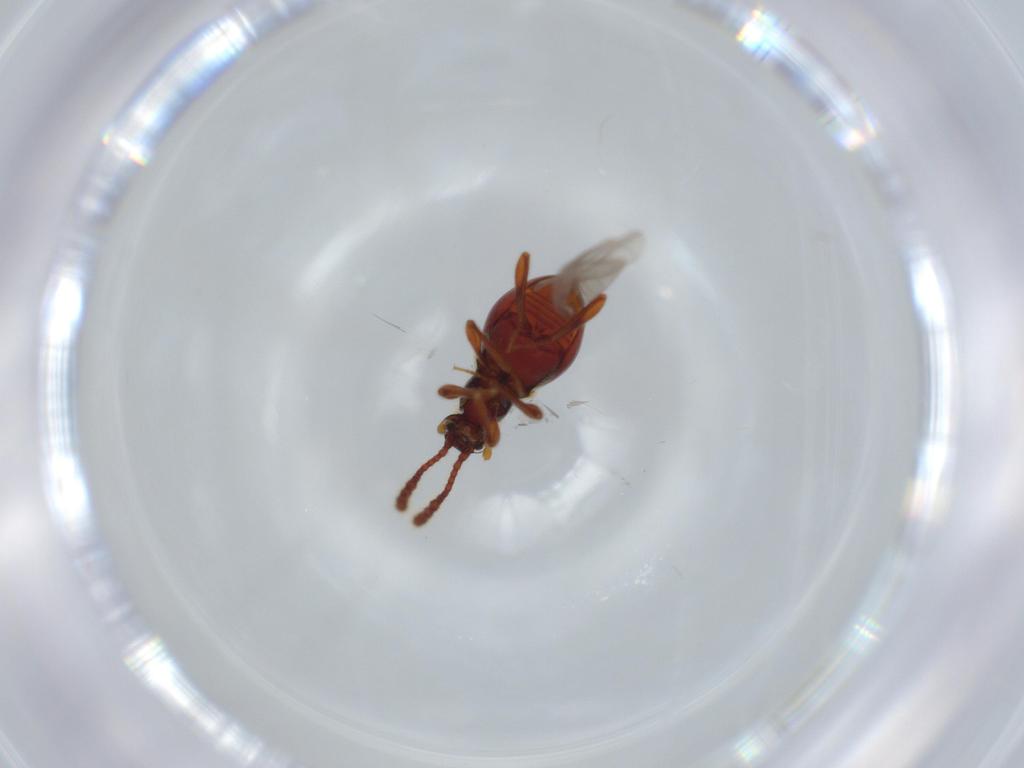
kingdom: Animalia
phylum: Arthropoda
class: Insecta
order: Coleoptera
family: Staphylinidae
